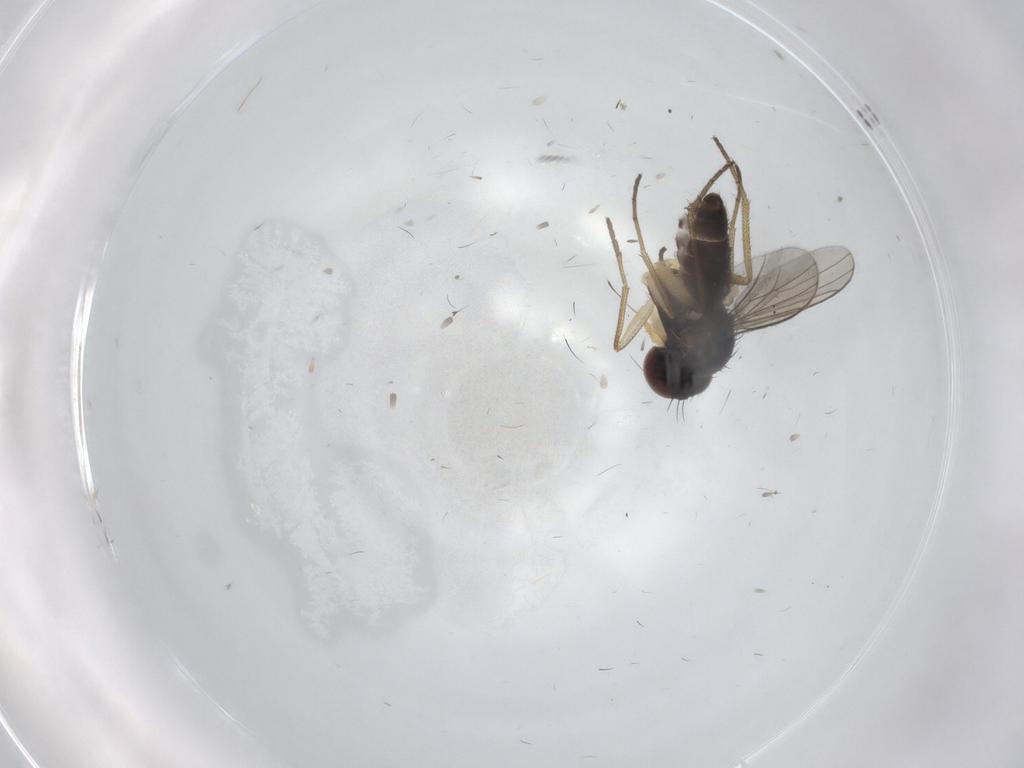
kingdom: Animalia
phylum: Arthropoda
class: Insecta
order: Diptera
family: Dolichopodidae
